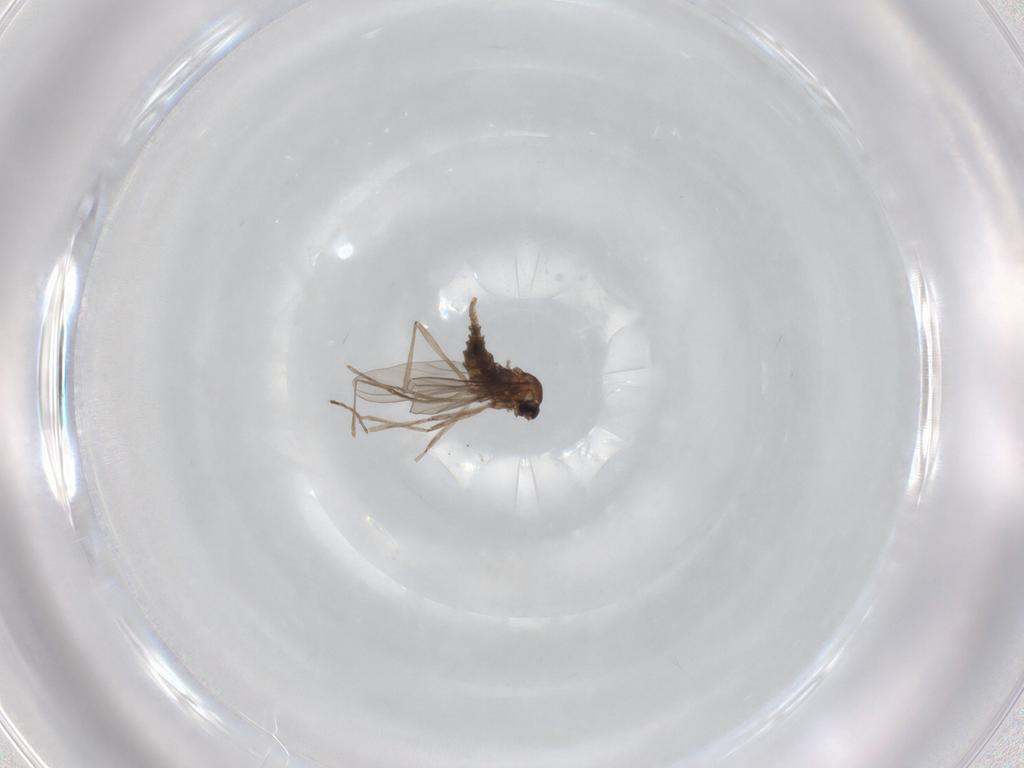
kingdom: Animalia
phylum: Arthropoda
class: Insecta
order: Diptera
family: Cecidomyiidae
